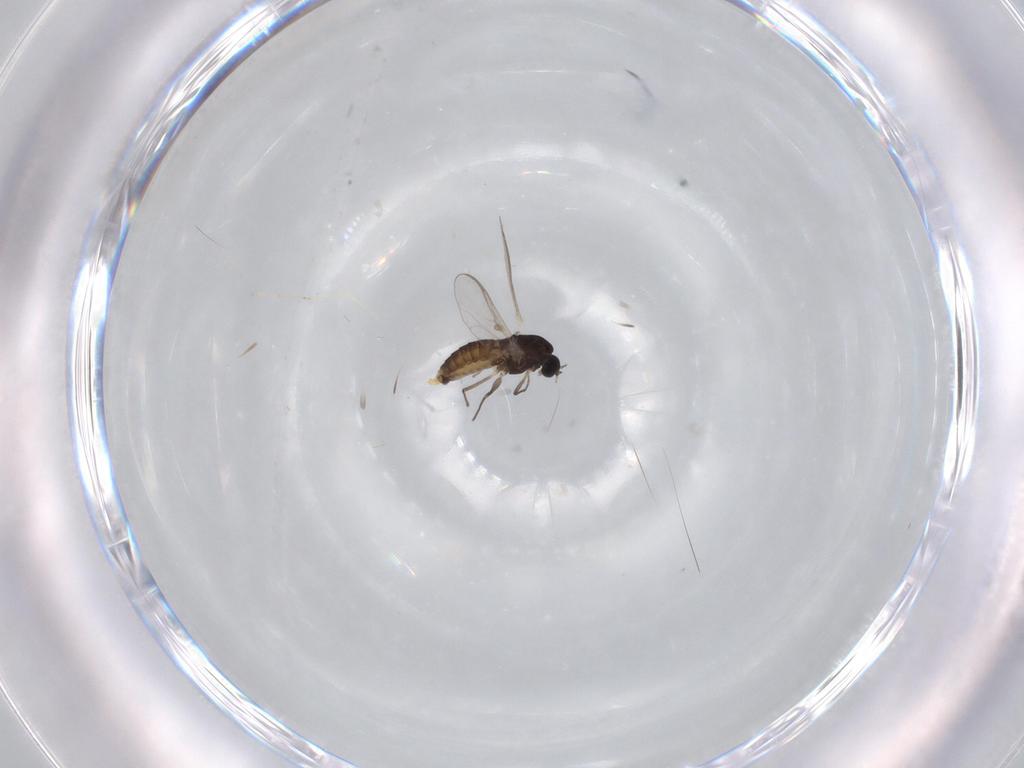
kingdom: Animalia
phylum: Arthropoda
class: Insecta
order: Diptera
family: Chironomidae
